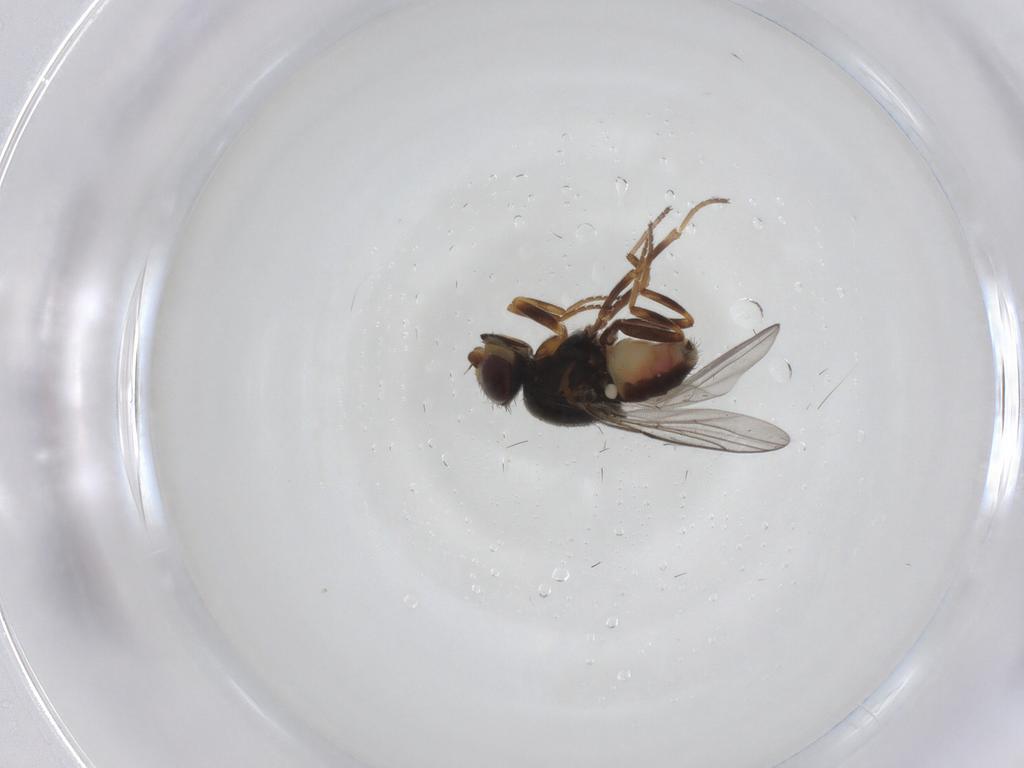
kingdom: Animalia
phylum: Arthropoda
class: Insecta
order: Diptera
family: Chloropidae
